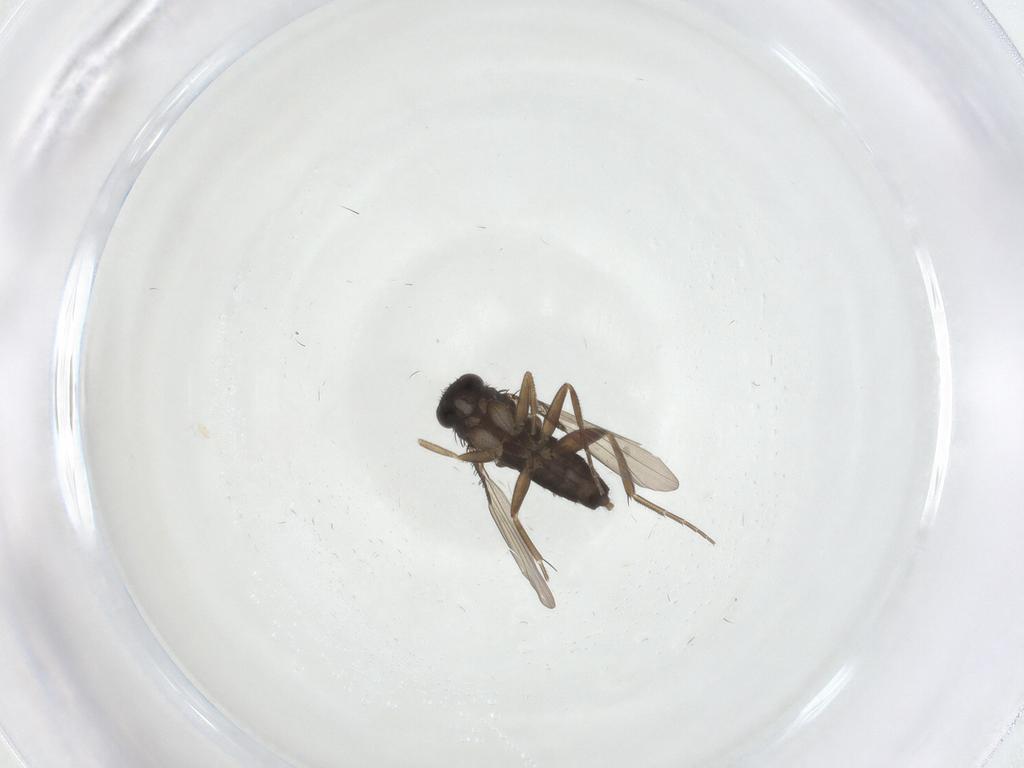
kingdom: Animalia
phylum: Arthropoda
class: Insecta
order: Diptera
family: Phoridae
